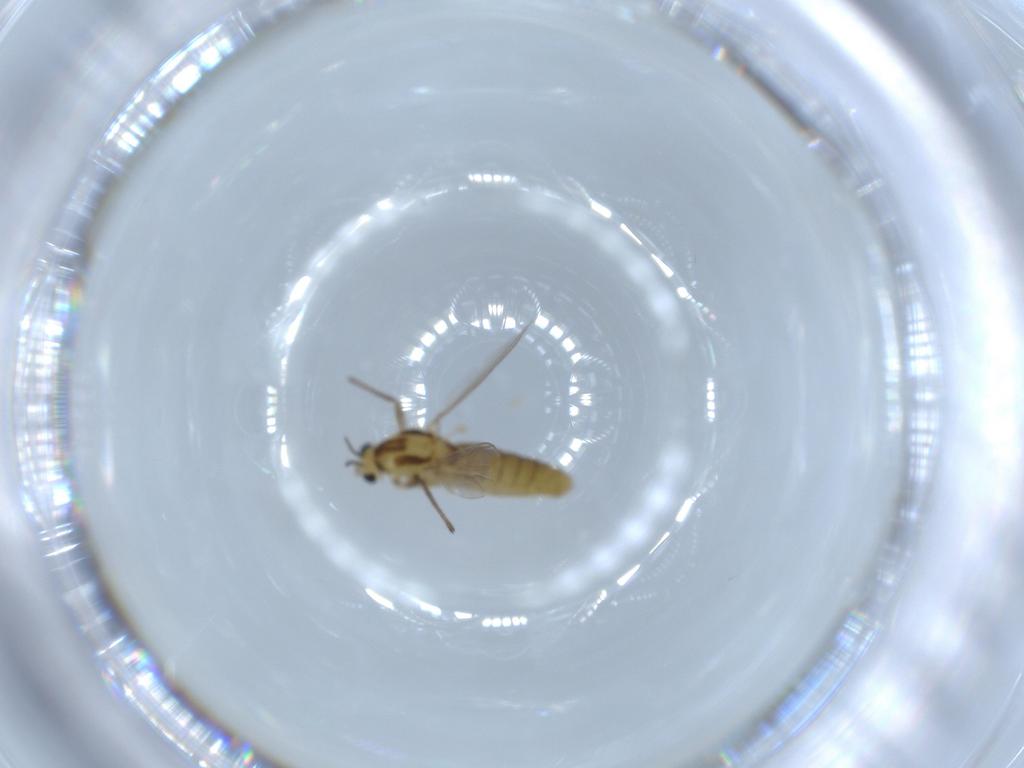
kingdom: Animalia
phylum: Arthropoda
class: Insecta
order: Diptera
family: Chironomidae
